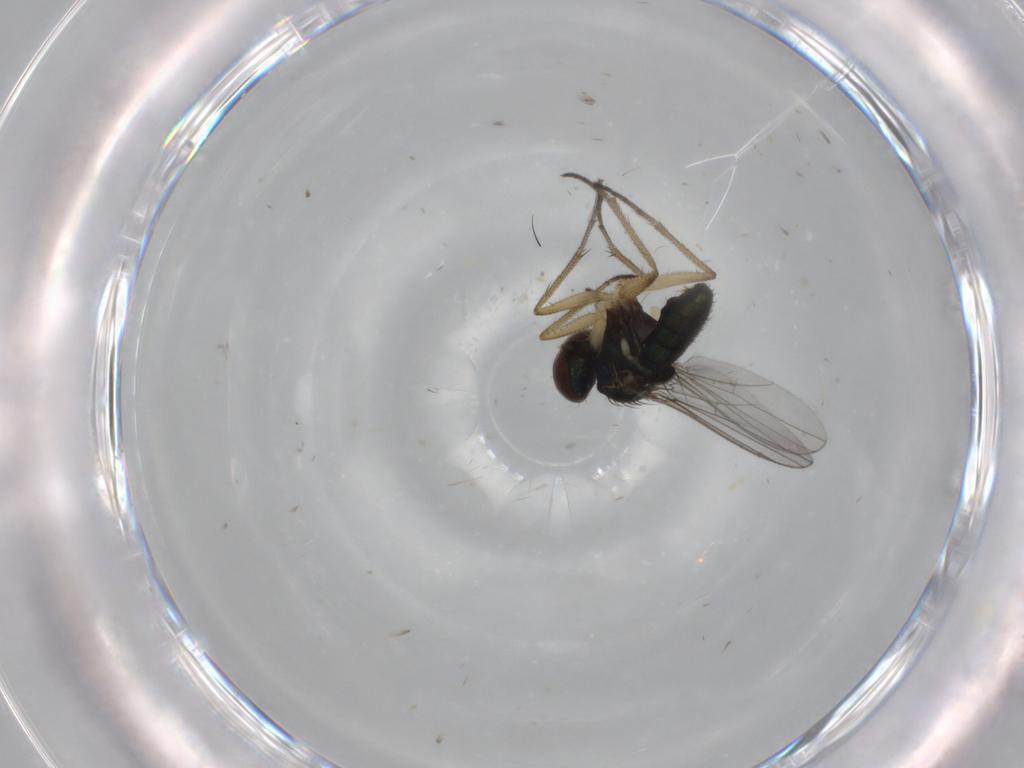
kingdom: Animalia
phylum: Arthropoda
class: Insecta
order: Diptera
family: Dolichopodidae
